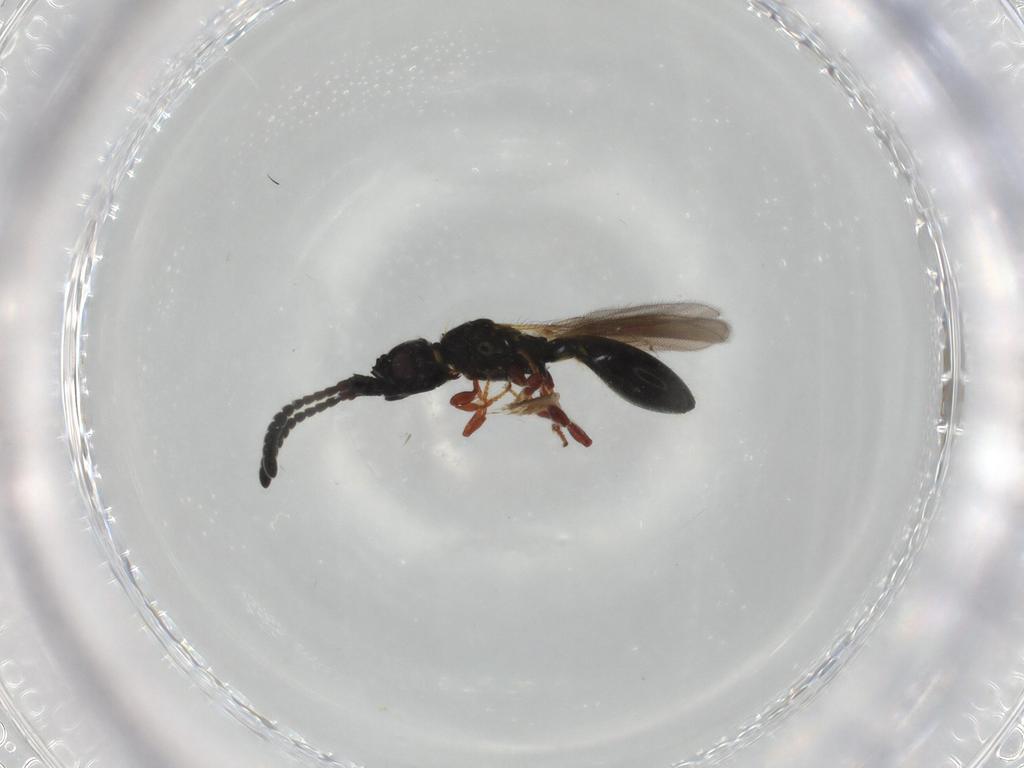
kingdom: Animalia
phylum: Arthropoda
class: Insecta
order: Hymenoptera
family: Diapriidae
